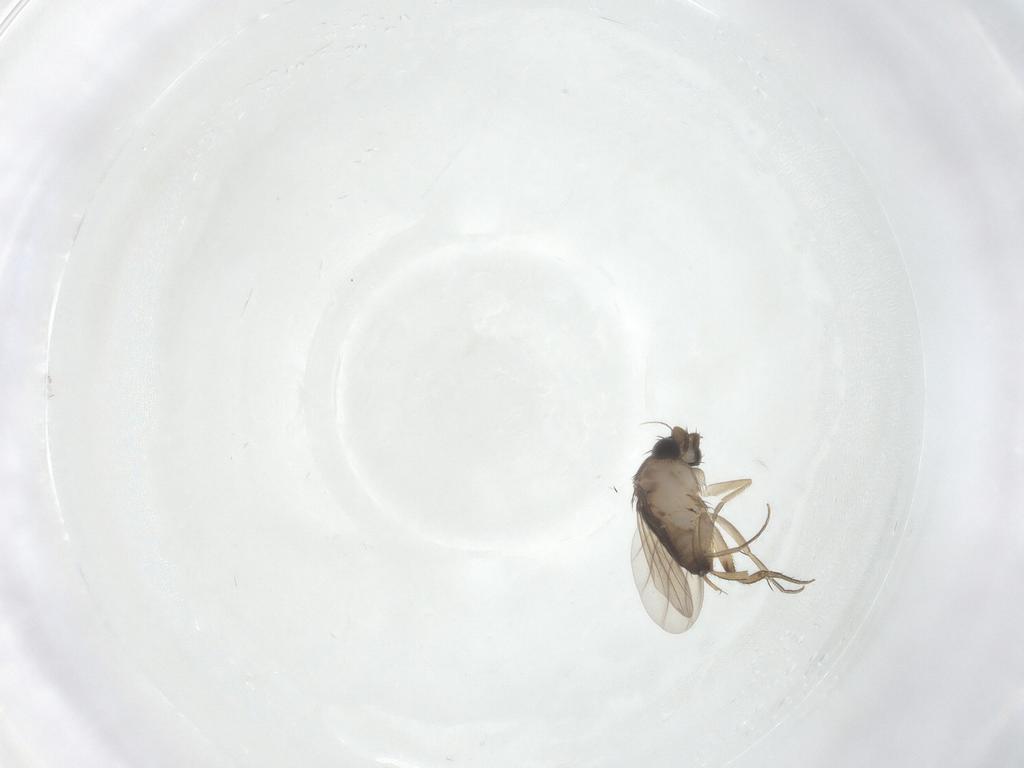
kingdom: Animalia
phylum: Arthropoda
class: Insecta
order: Diptera
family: Phoridae
